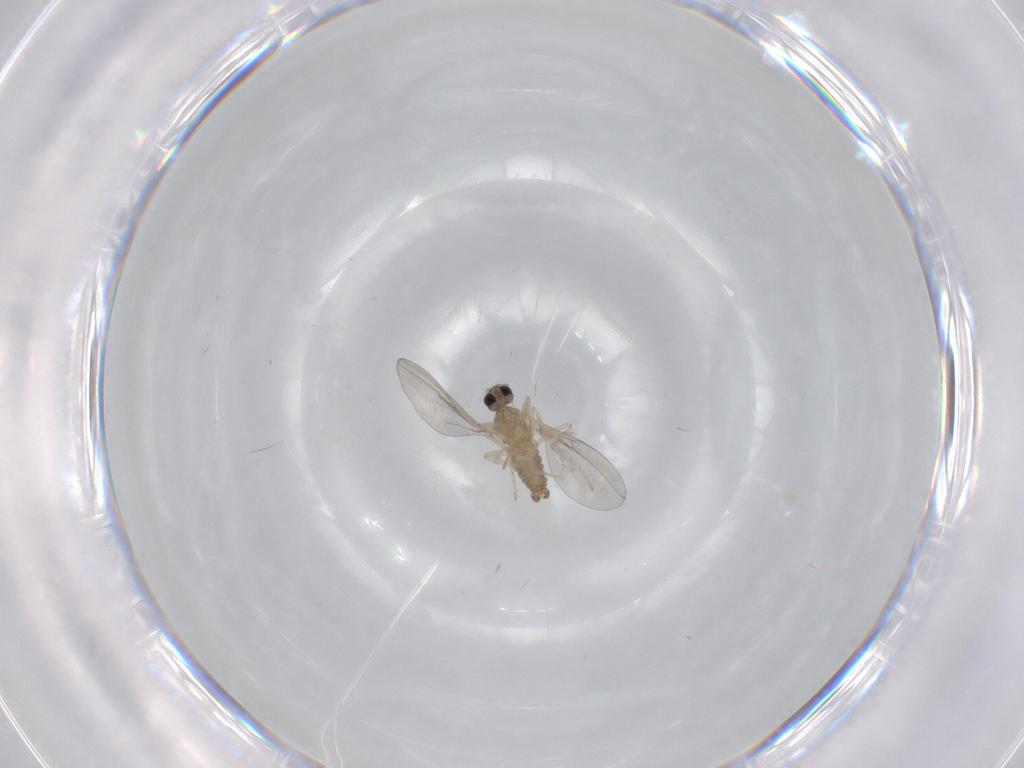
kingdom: Animalia
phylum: Arthropoda
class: Insecta
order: Diptera
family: Cecidomyiidae
